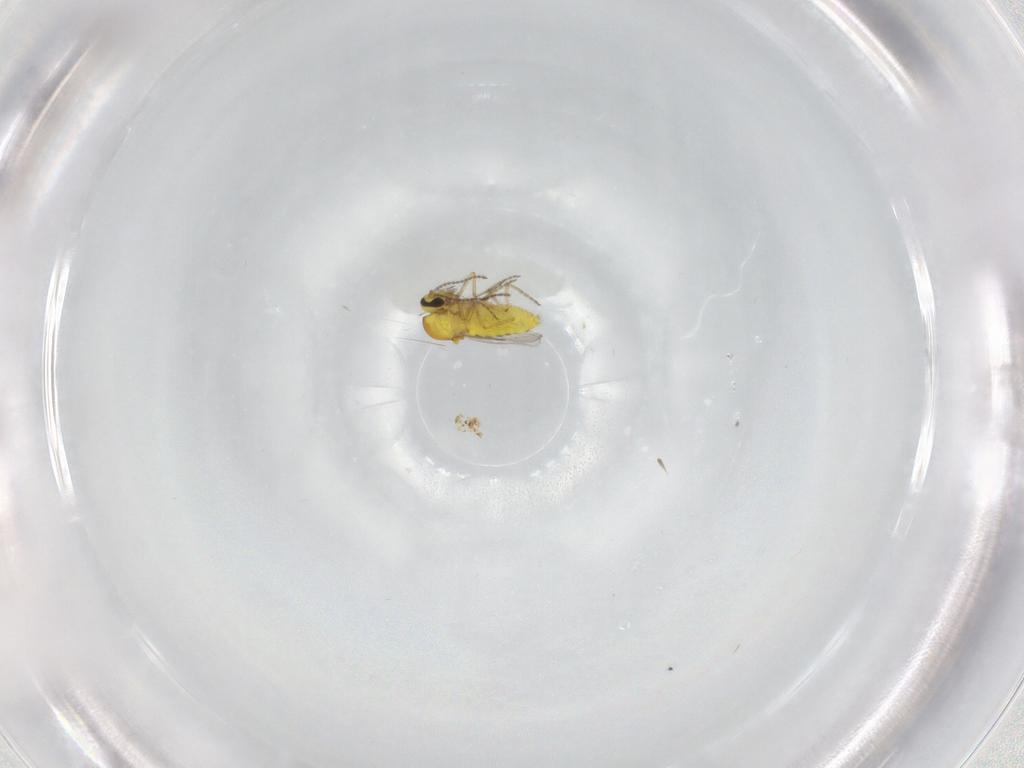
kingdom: Animalia
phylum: Arthropoda
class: Insecta
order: Diptera
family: Ceratopogonidae
